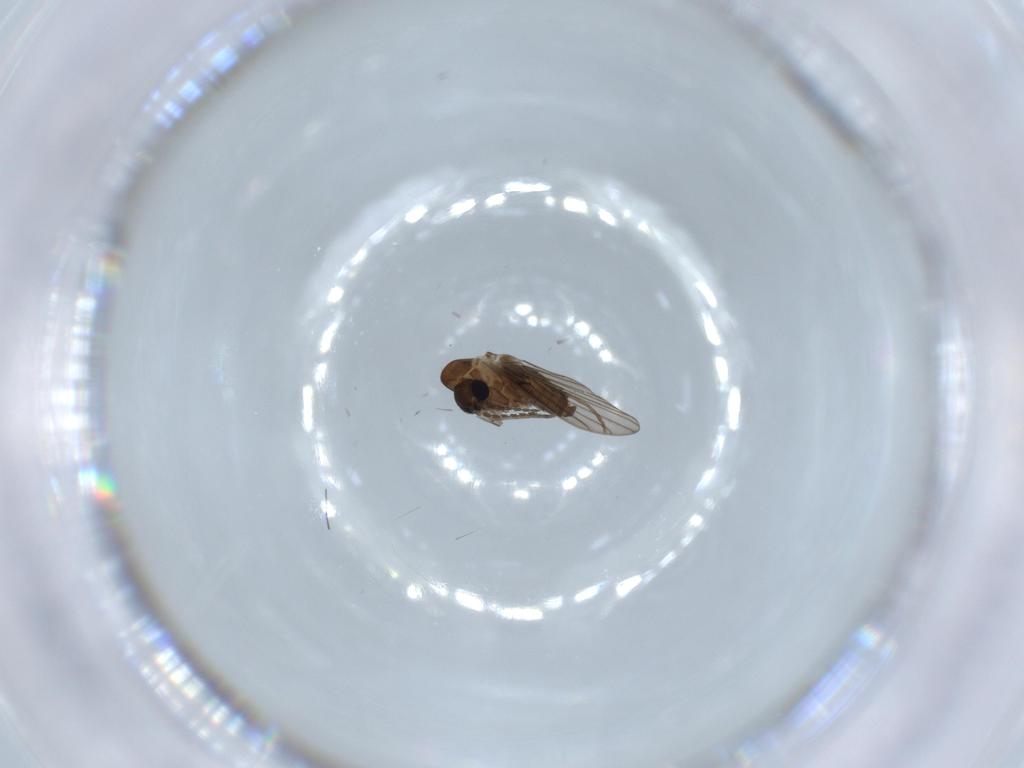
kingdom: Animalia
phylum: Arthropoda
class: Insecta
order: Diptera
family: Psychodidae
